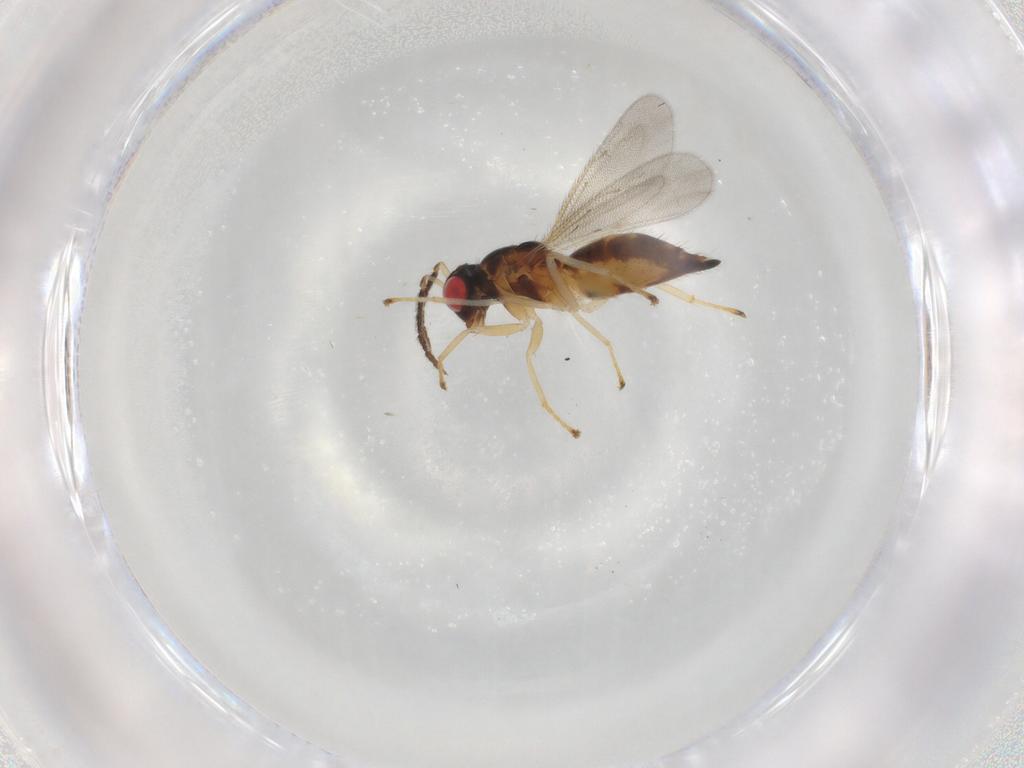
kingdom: Animalia
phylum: Arthropoda
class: Insecta
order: Hymenoptera
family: Eulophidae
